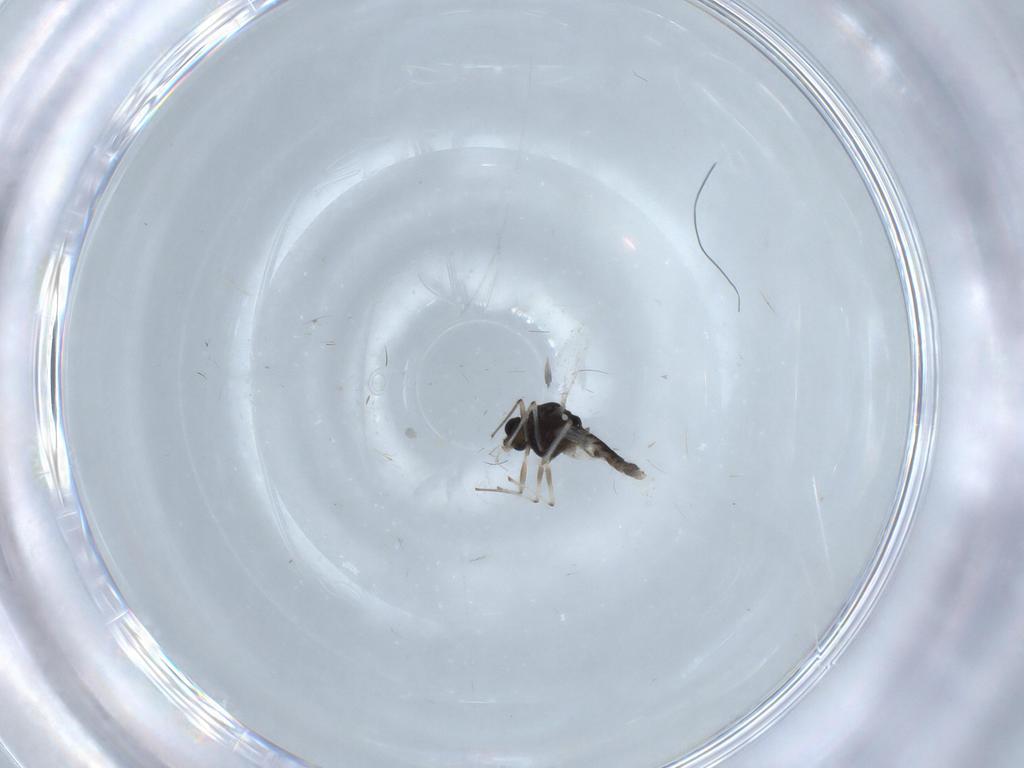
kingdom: Animalia
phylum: Arthropoda
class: Insecta
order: Diptera
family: Chironomidae
